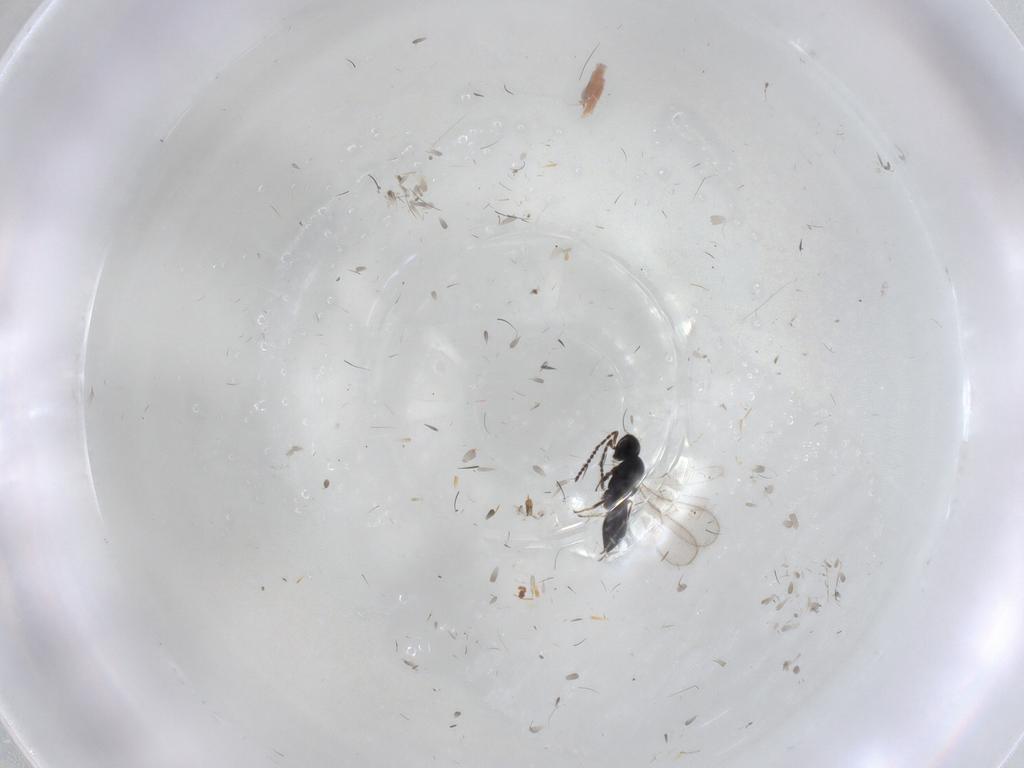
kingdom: Animalia
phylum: Arthropoda
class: Insecta
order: Hymenoptera
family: Scelionidae
